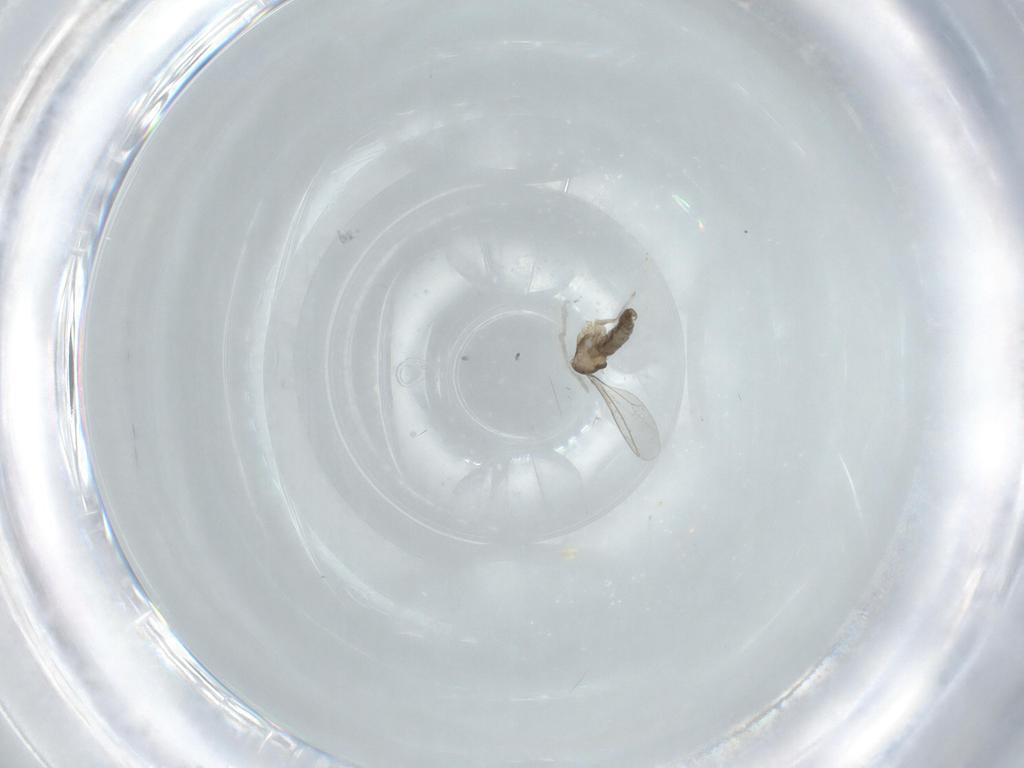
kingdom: Animalia
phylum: Arthropoda
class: Insecta
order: Diptera
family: Cecidomyiidae
